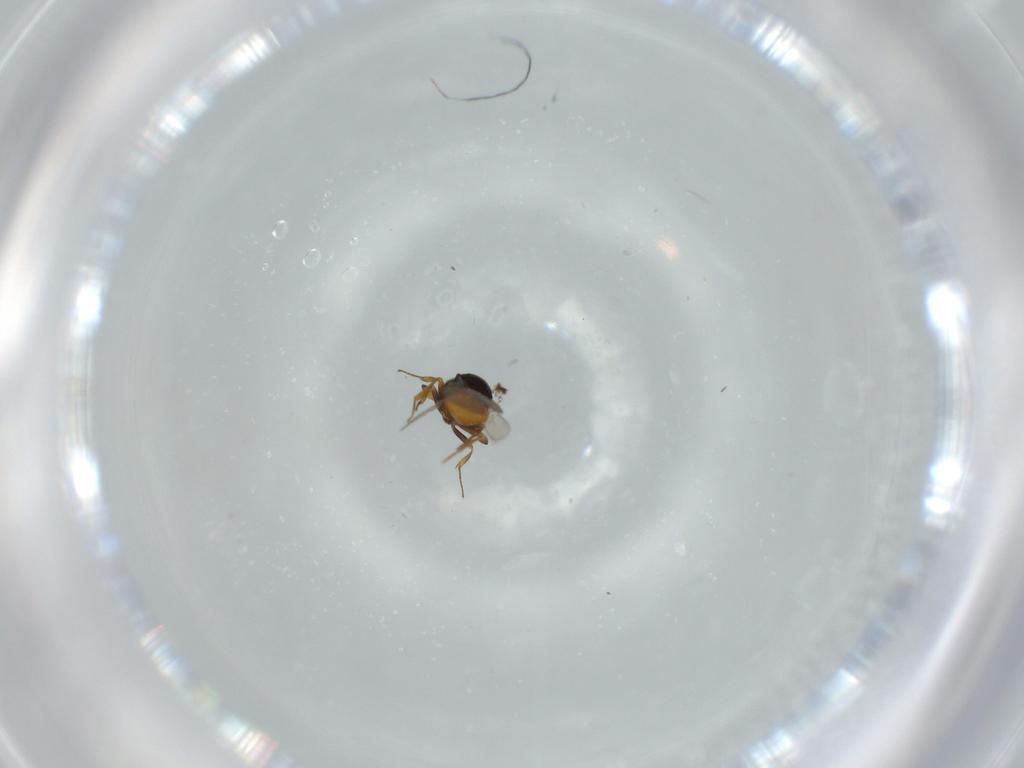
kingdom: Animalia
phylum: Arthropoda
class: Insecta
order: Hymenoptera
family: Scelionidae
